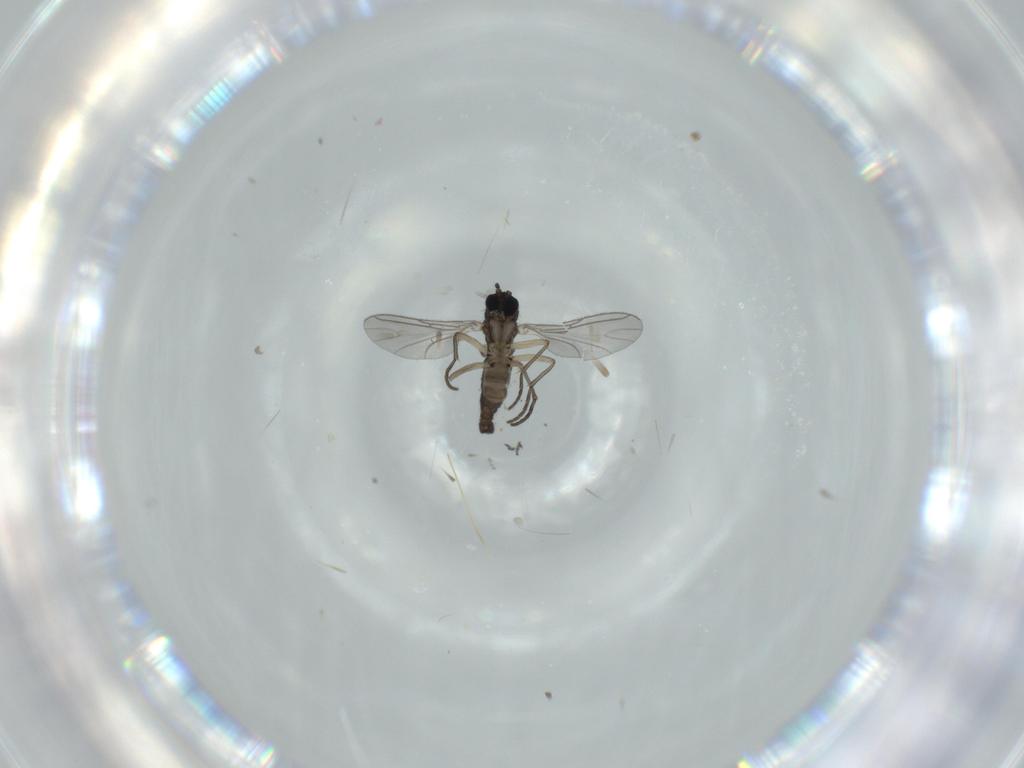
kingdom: Animalia
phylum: Arthropoda
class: Insecta
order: Diptera
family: Sciaridae
